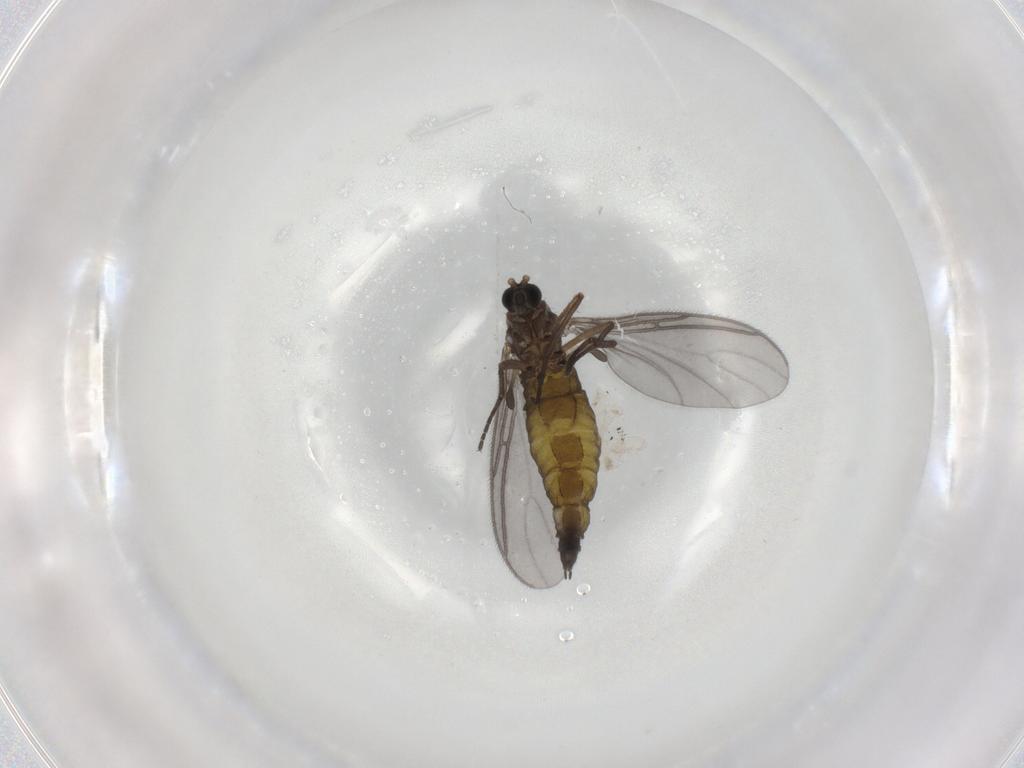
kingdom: Animalia
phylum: Arthropoda
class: Insecta
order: Diptera
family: Sciaridae
